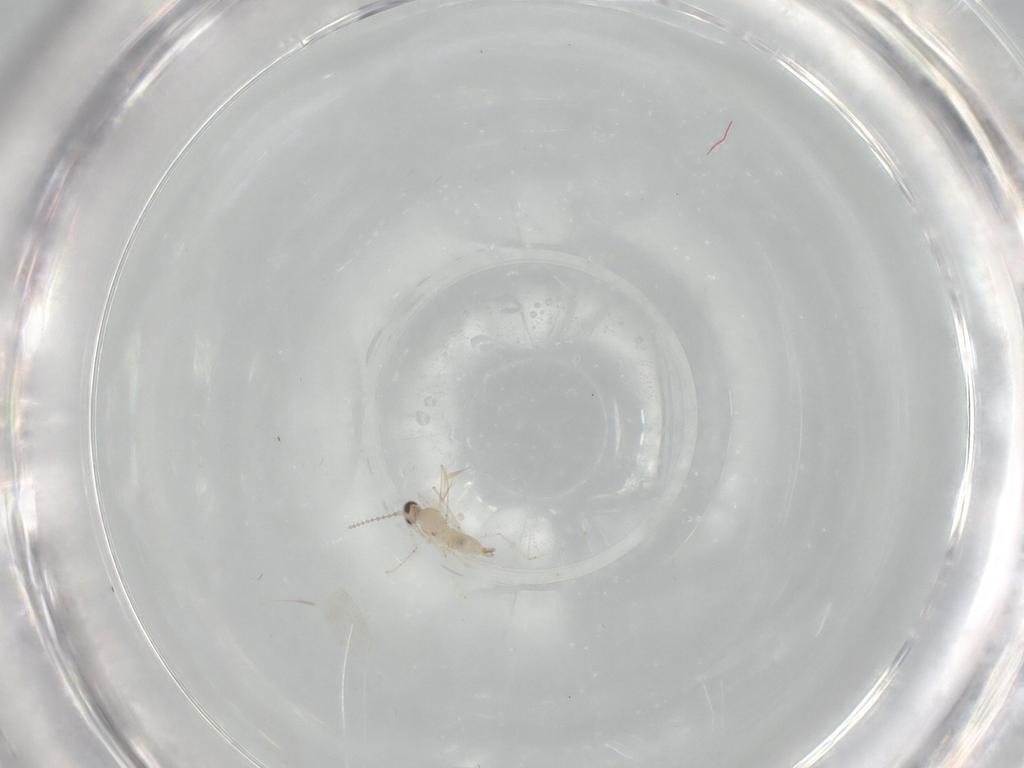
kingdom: Animalia
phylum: Arthropoda
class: Insecta
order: Diptera
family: Cecidomyiidae
